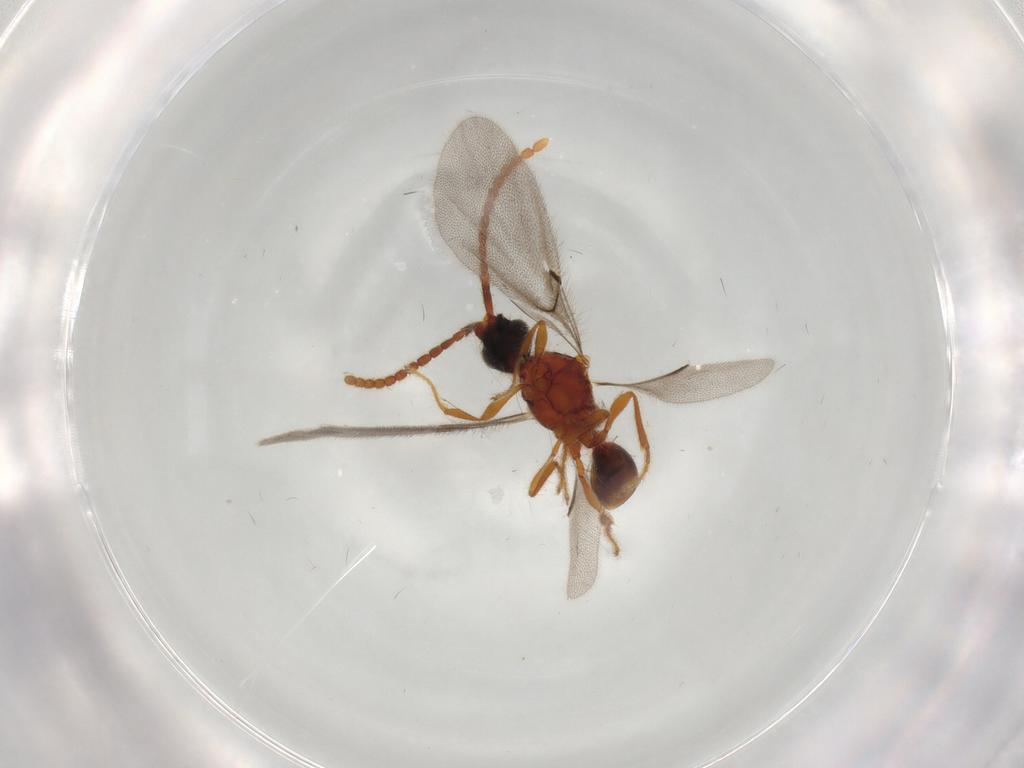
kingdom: Animalia
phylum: Arthropoda
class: Insecta
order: Hymenoptera
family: Diapriidae
